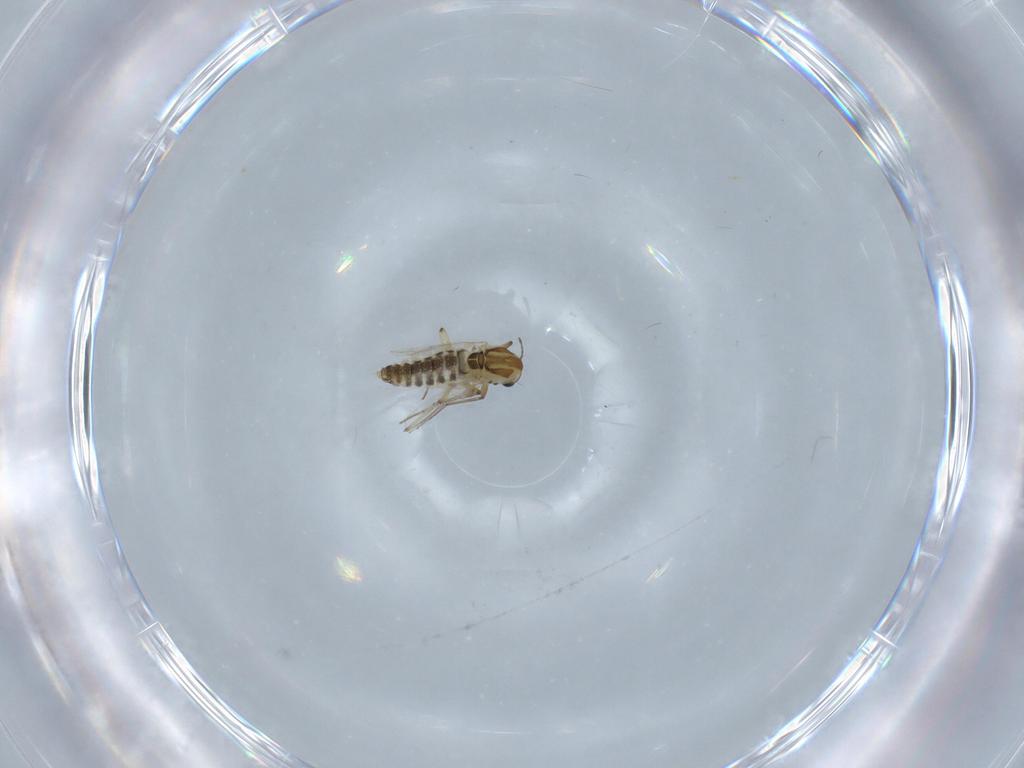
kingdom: Animalia
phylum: Arthropoda
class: Insecta
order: Diptera
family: Chironomidae
